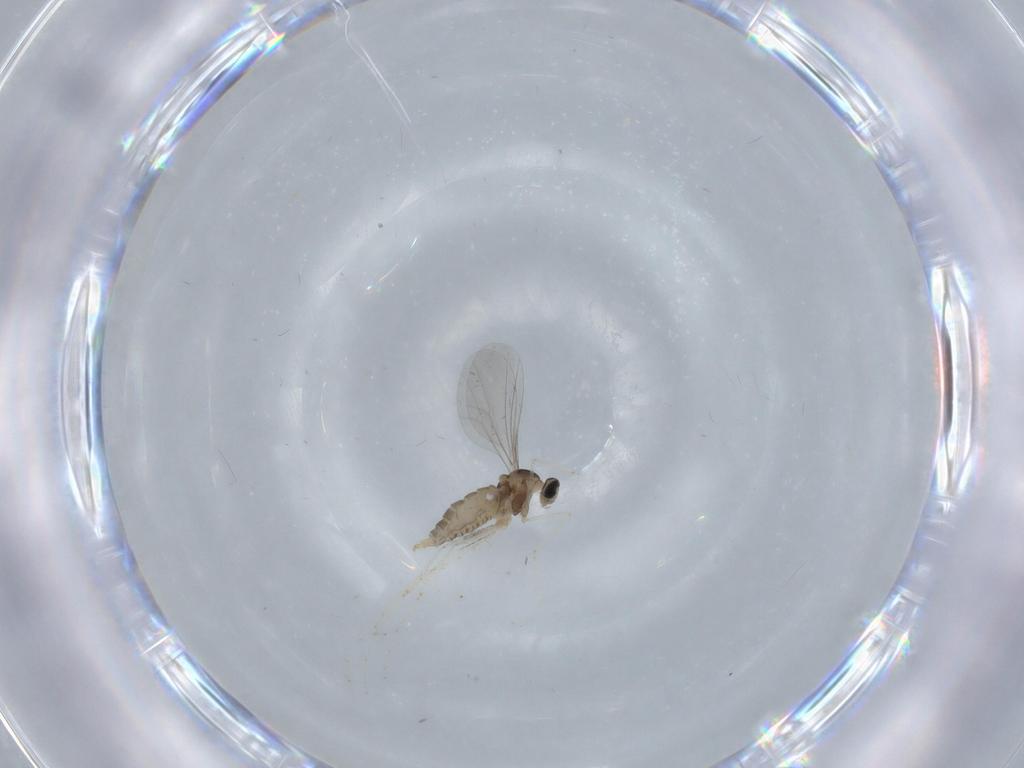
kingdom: Animalia
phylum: Arthropoda
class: Insecta
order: Diptera
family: Cecidomyiidae
